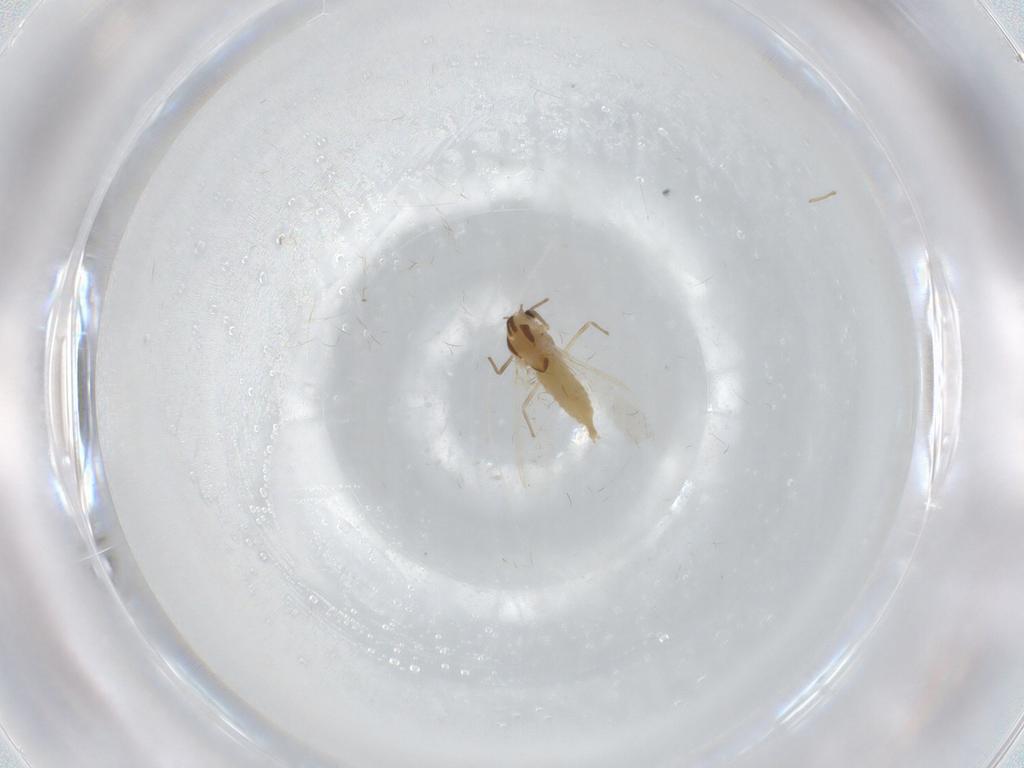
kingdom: Animalia
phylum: Arthropoda
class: Insecta
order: Diptera
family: Chironomidae
